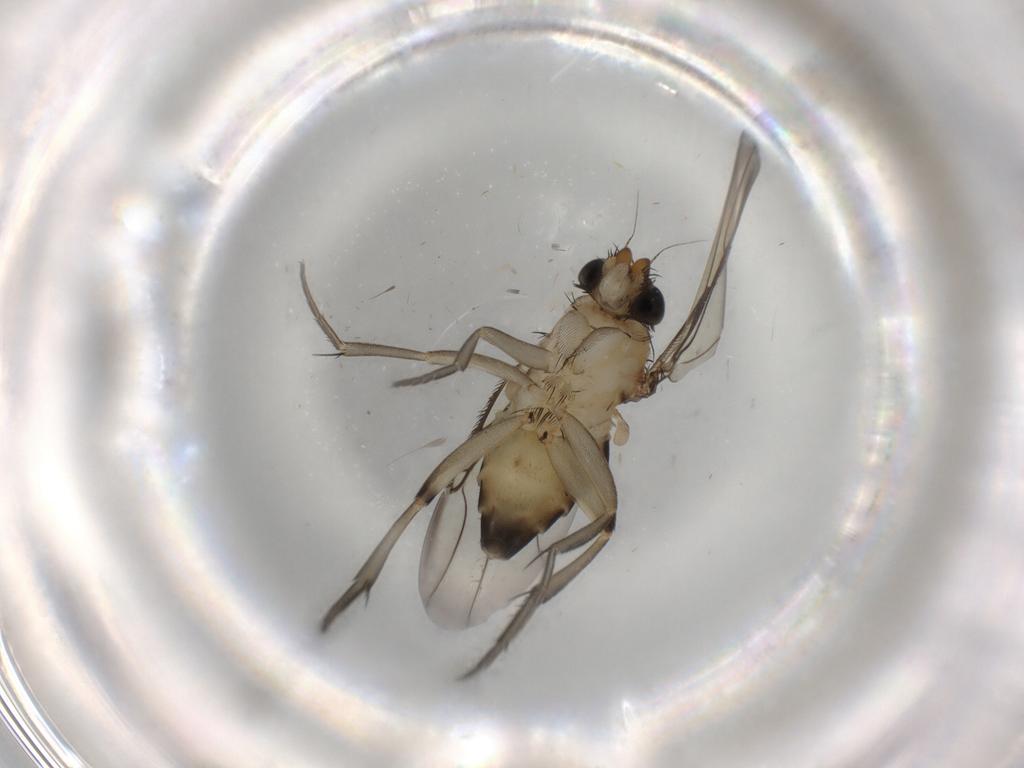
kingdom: Animalia
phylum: Arthropoda
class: Insecta
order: Diptera
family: Phoridae
